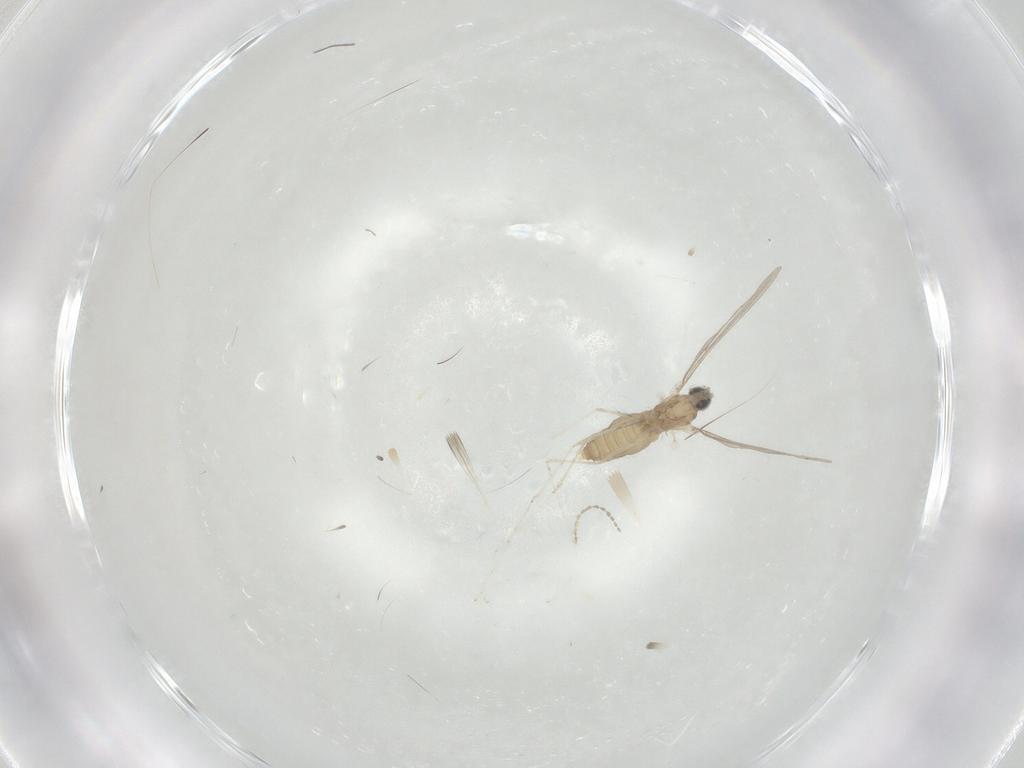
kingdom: Animalia
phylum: Arthropoda
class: Insecta
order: Diptera
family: Cecidomyiidae
